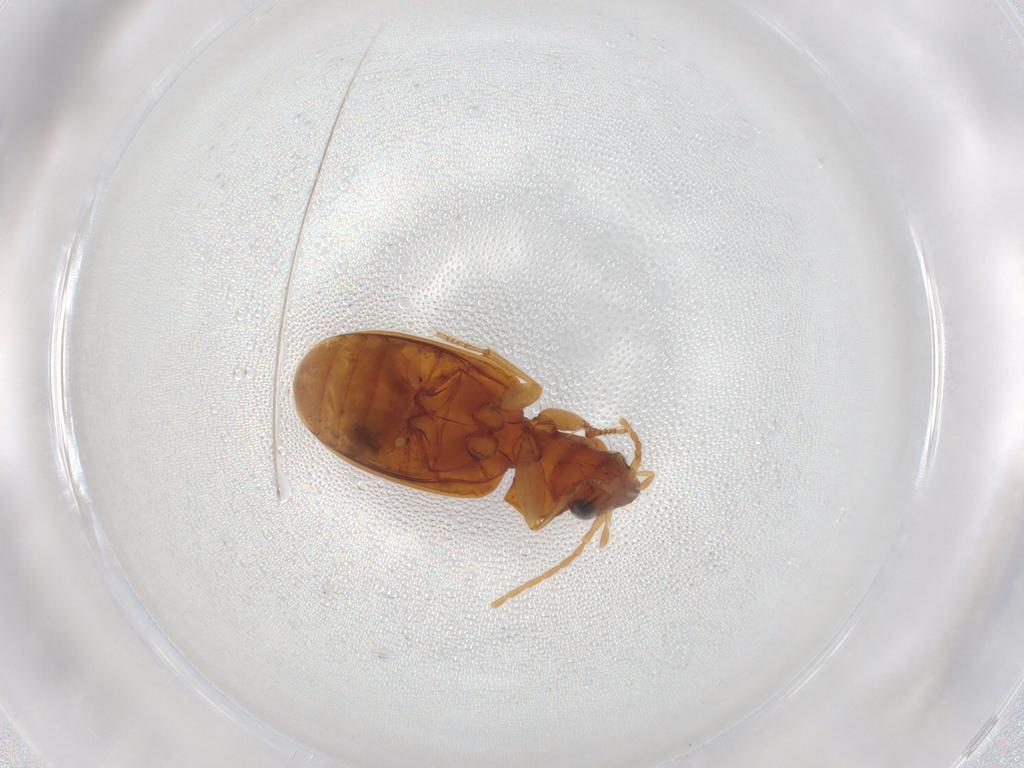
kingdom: Animalia
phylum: Arthropoda
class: Insecta
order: Coleoptera
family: Carabidae
